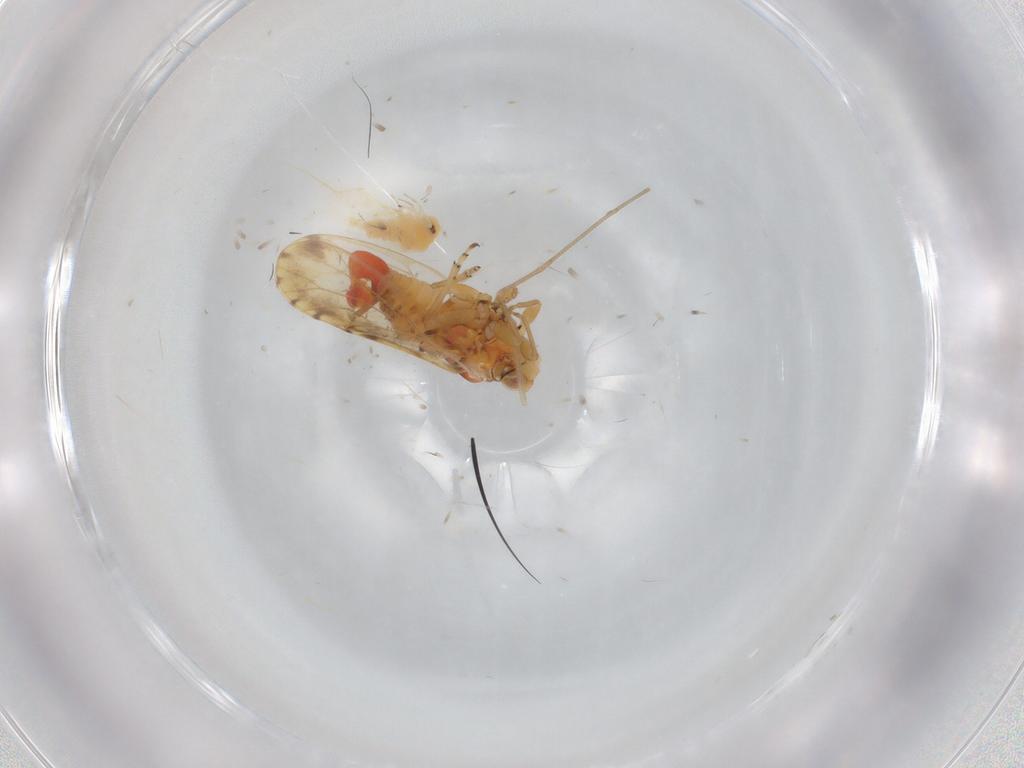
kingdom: Animalia
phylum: Arthropoda
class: Insecta
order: Hemiptera
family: Psyllidae
